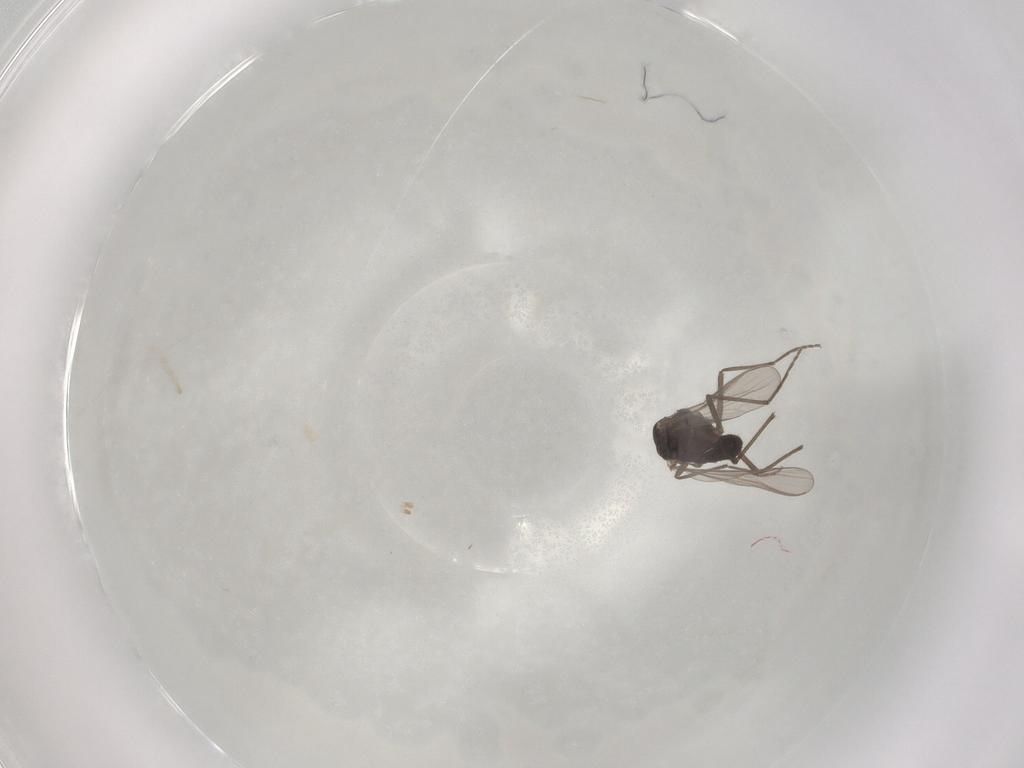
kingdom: Animalia
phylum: Arthropoda
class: Insecta
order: Diptera
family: Chironomidae
